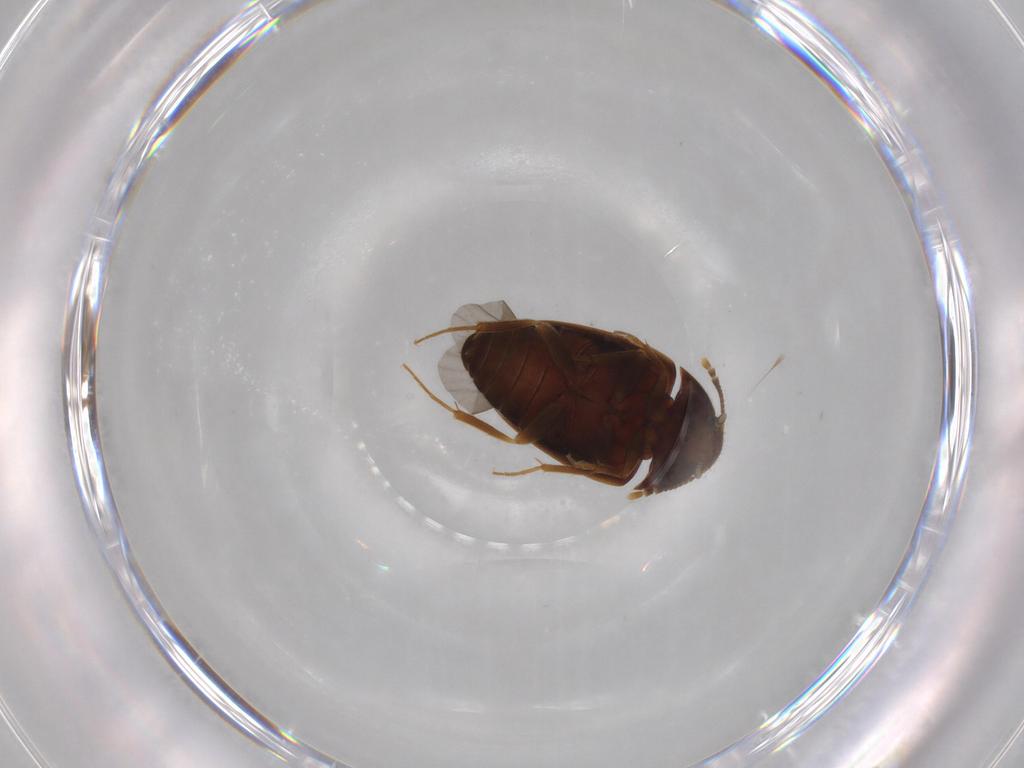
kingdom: Animalia
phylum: Arthropoda
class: Insecta
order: Coleoptera
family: Mycetophagidae
